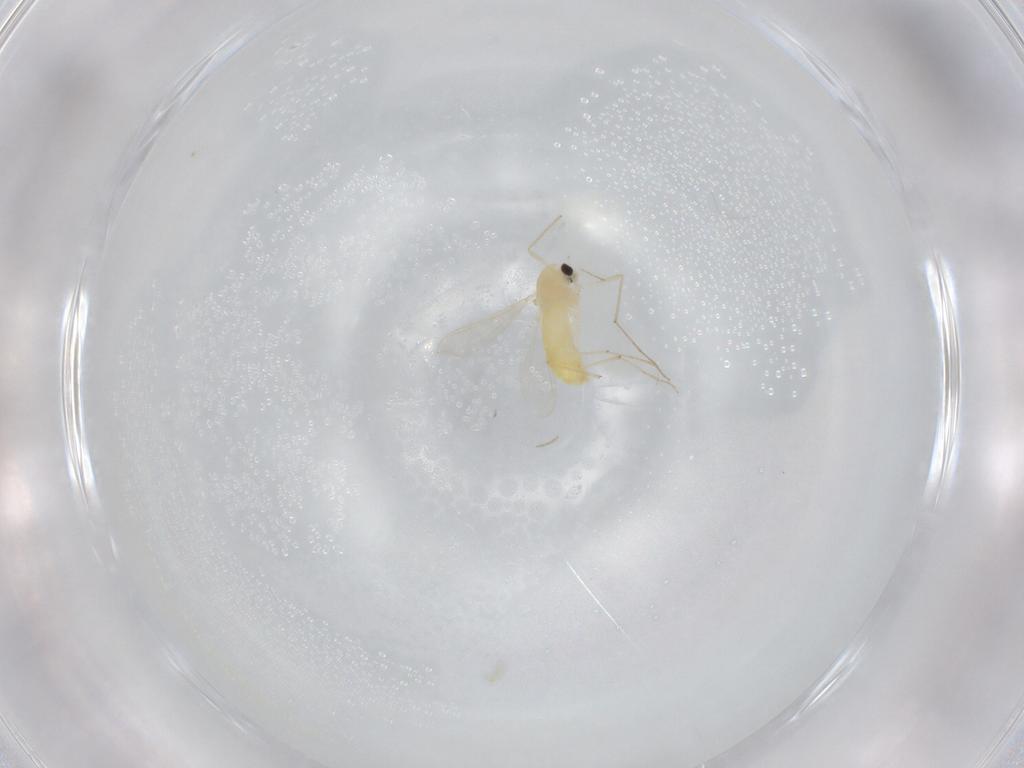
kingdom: Animalia
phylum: Arthropoda
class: Insecta
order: Diptera
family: Chironomidae
